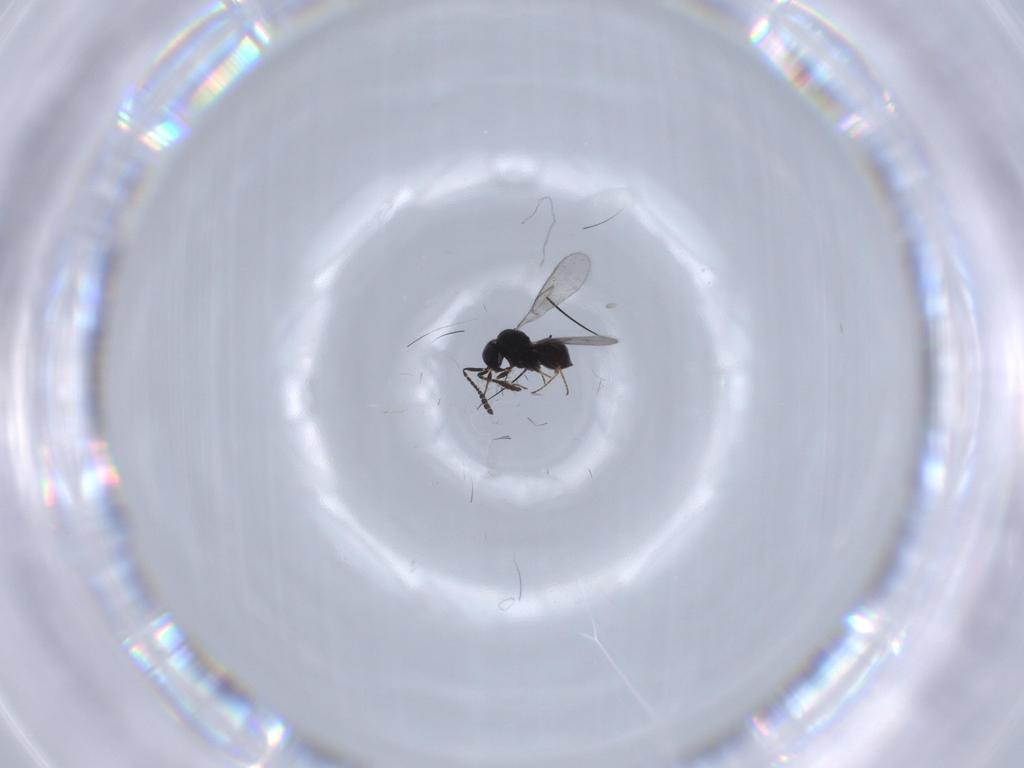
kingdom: Animalia
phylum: Arthropoda
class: Insecta
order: Hymenoptera
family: Scelionidae
